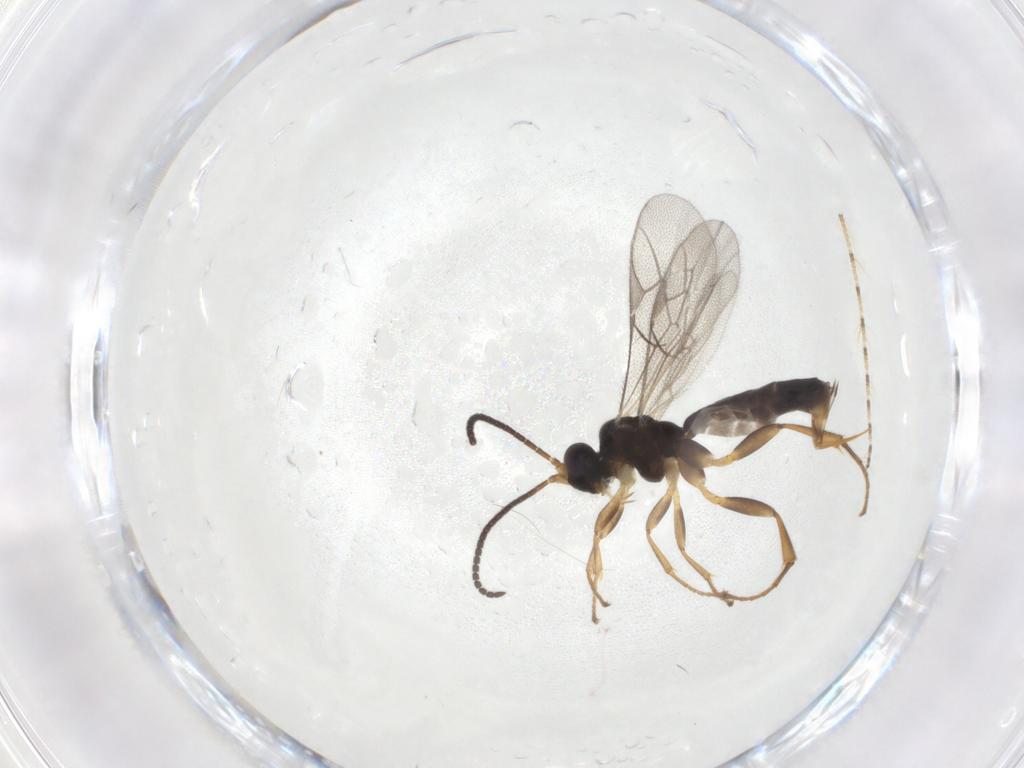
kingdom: Animalia
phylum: Arthropoda
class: Insecta
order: Hymenoptera
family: Ichneumonidae
